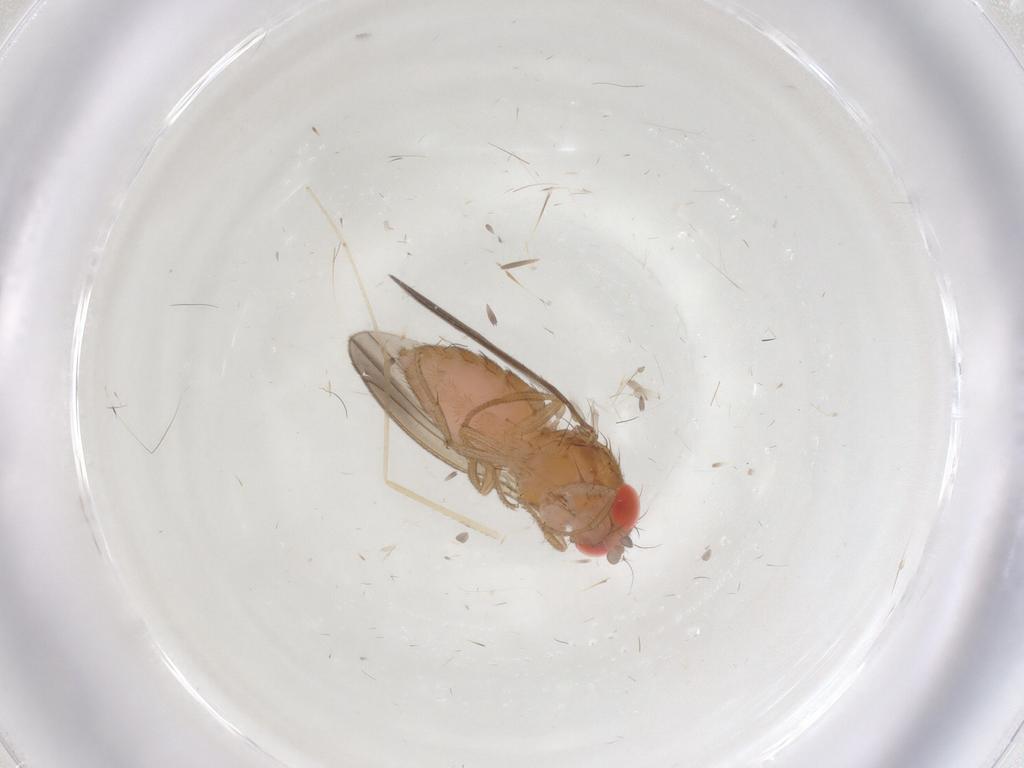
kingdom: Animalia
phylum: Arthropoda
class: Insecta
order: Diptera
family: Drosophilidae
